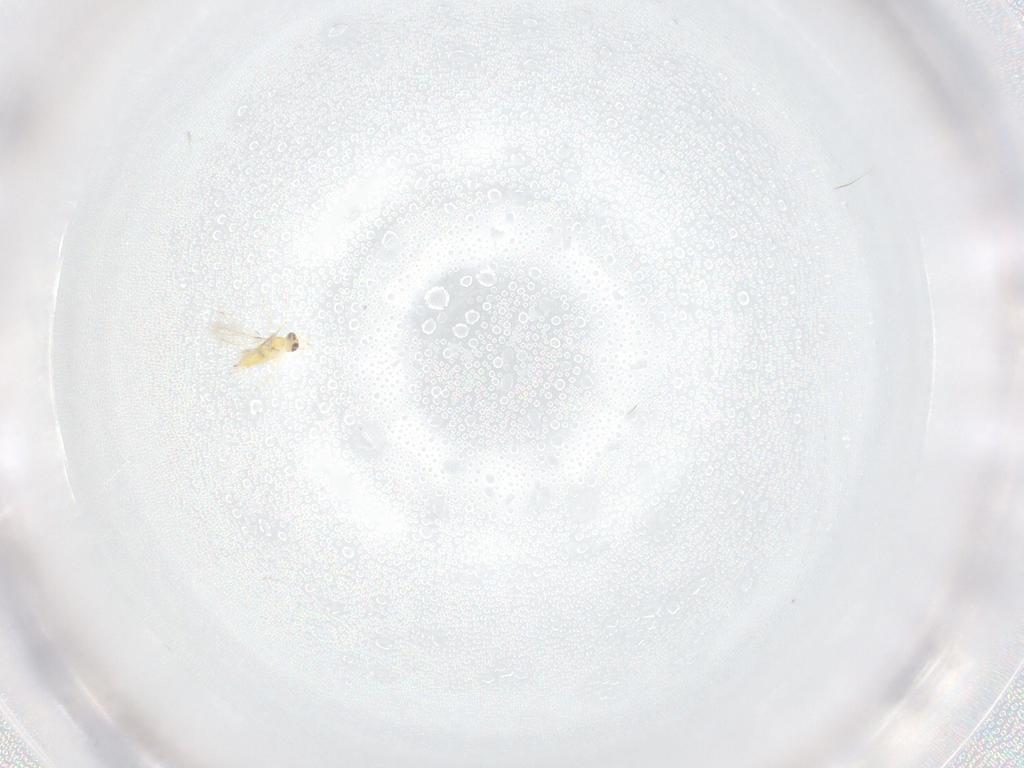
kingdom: Animalia
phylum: Arthropoda
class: Insecta
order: Hymenoptera
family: Mymaridae
